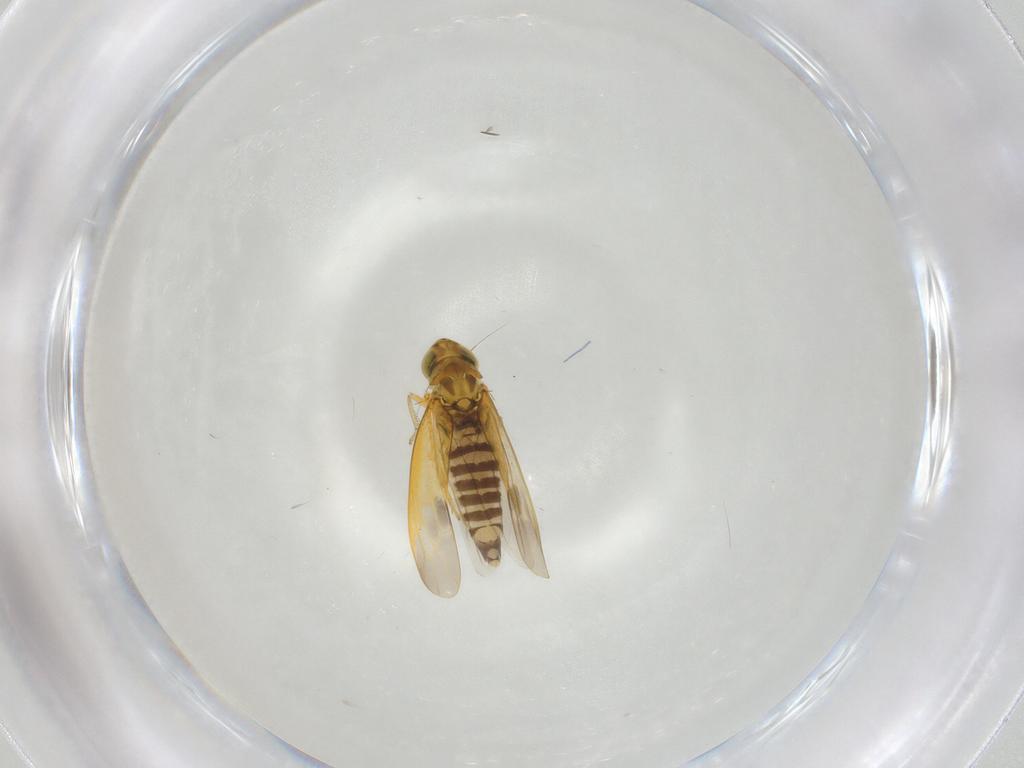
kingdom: Animalia
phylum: Arthropoda
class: Insecta
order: Hemiptera
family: Cicadellidae
